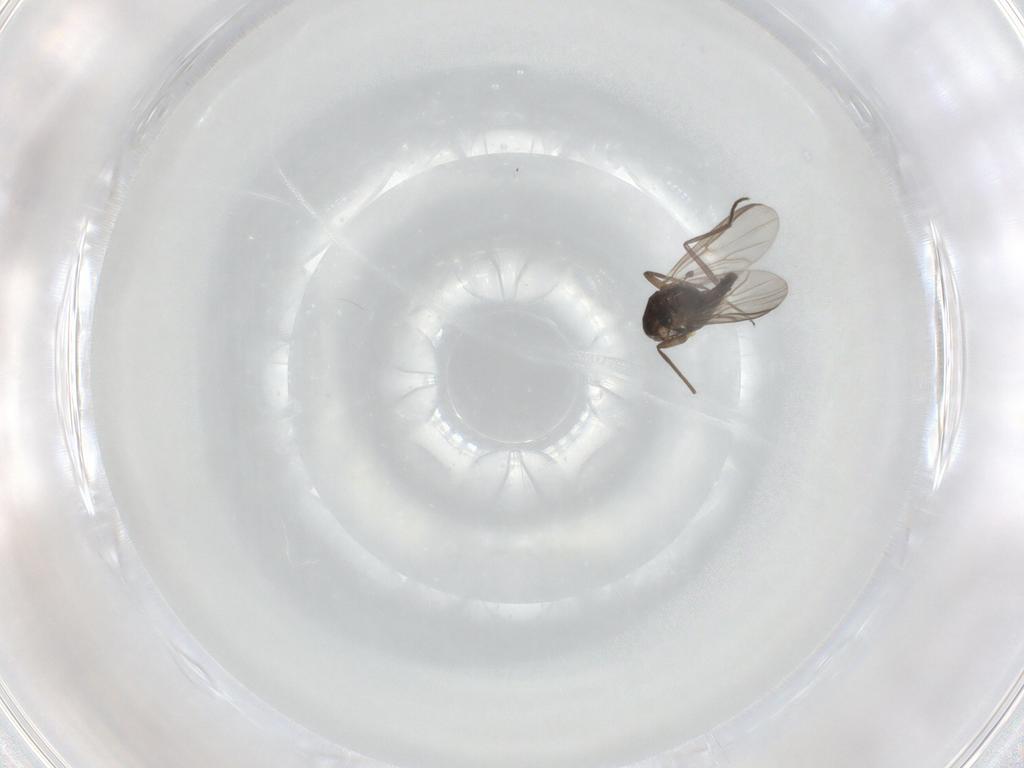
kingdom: Animalia
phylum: Arthropoda
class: Insecta
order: Diptera
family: Chironomidae
